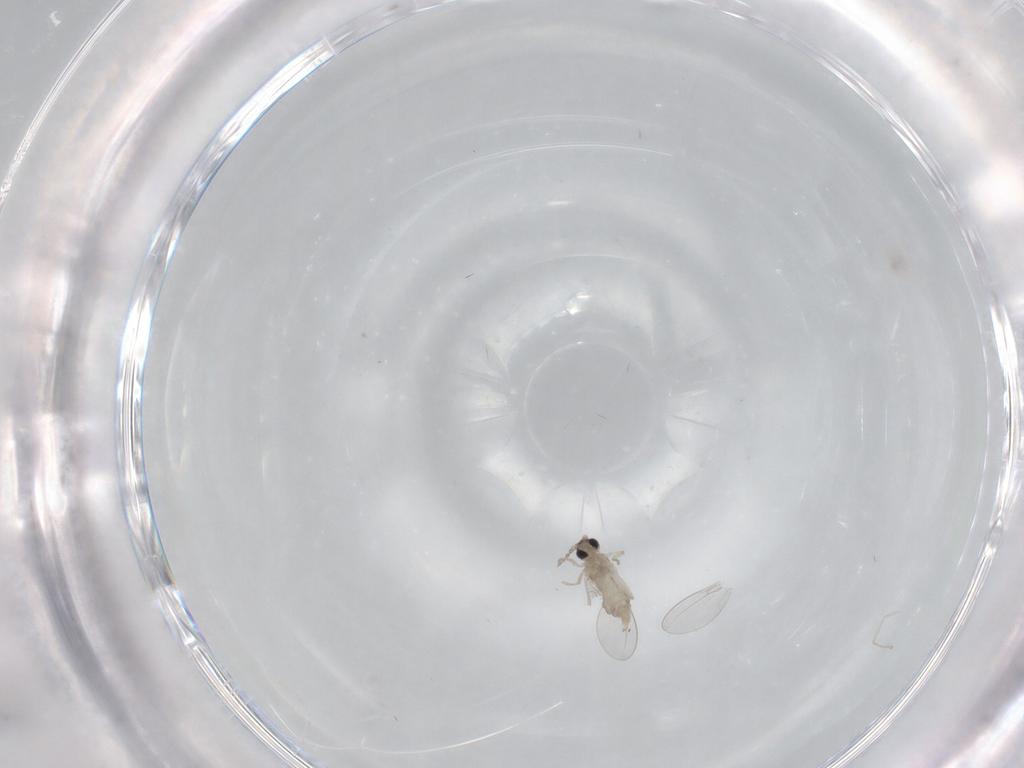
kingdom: Animalia
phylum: Arthropoda
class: Insecta
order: Diptera
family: Cecidomyiidae
